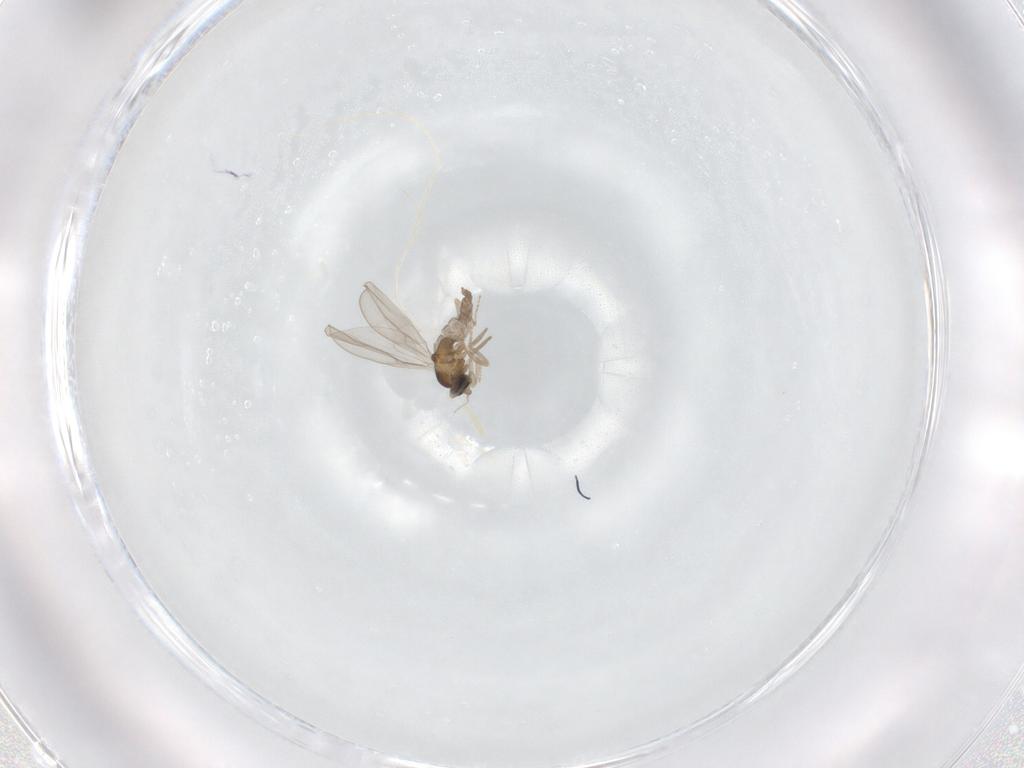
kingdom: Animalia
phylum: Arthropoda
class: Insecta
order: Diptera
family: Cecidomyiidae
